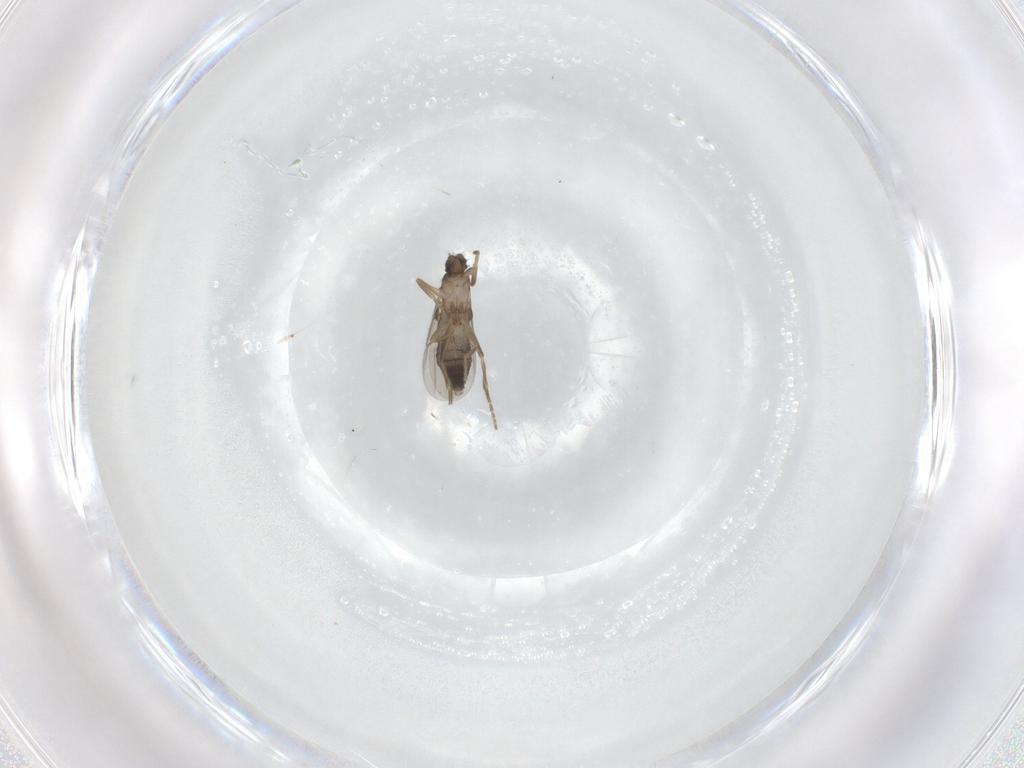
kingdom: Animalia
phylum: Arthropoda
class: Insecta
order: Diptera
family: Phoridae
